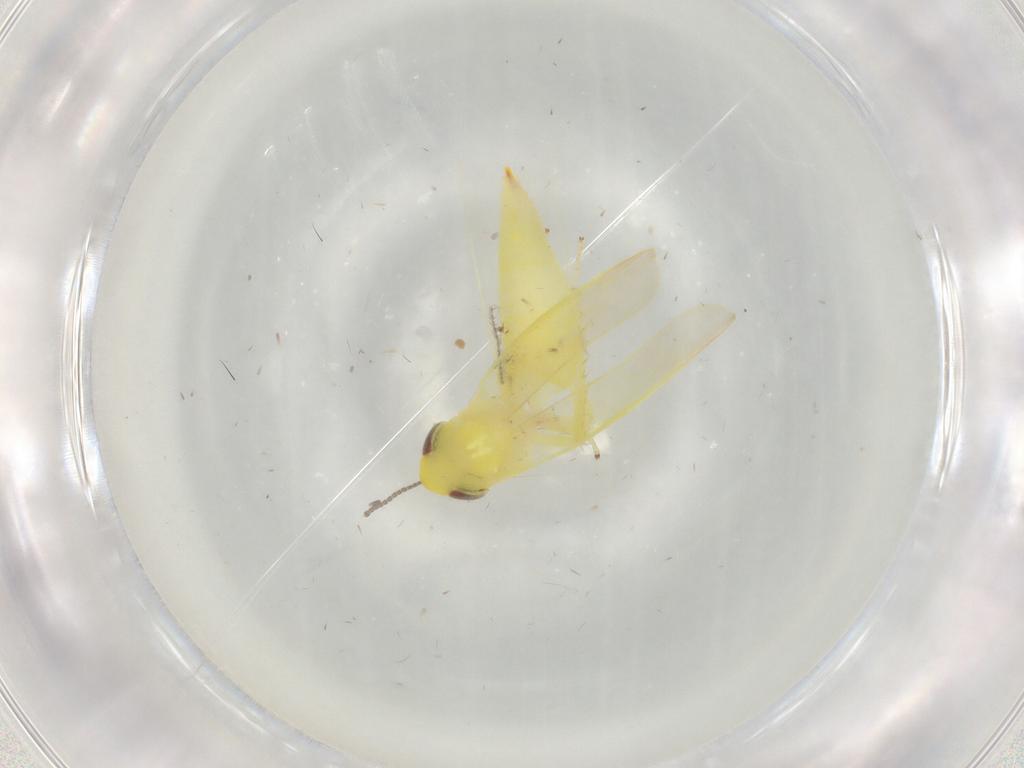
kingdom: Animalia
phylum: Arthropoda
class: Insecta
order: Hemiptera
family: Cicadellidae
